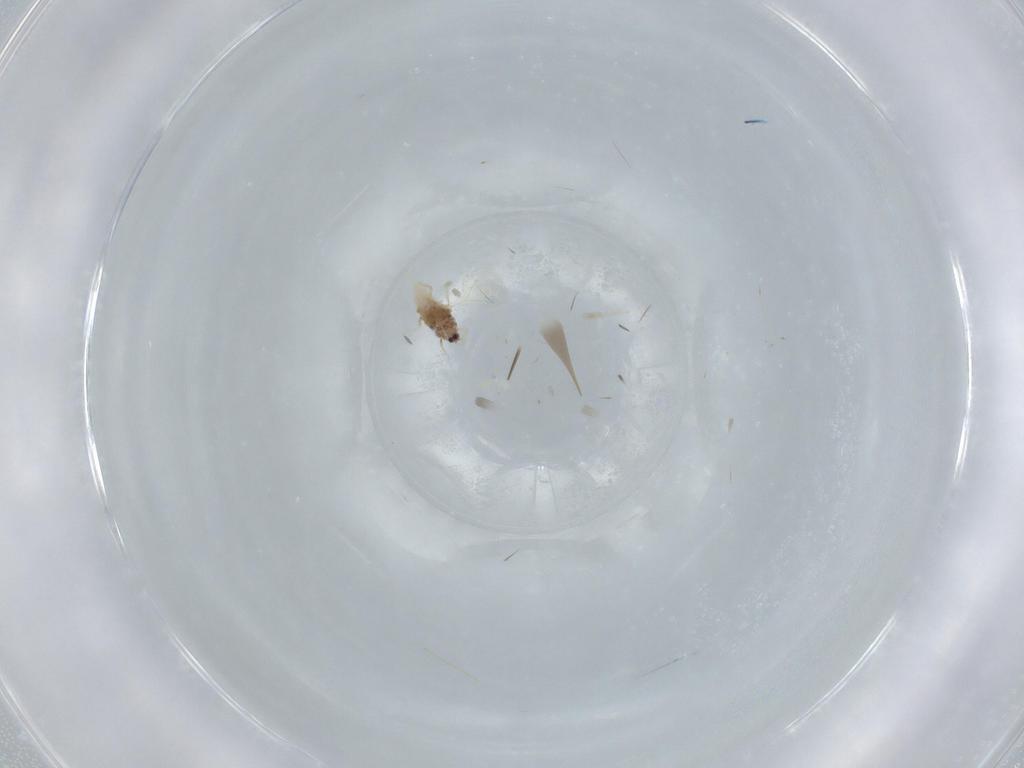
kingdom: Animalia
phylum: Arthropoda
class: Collembola
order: Entomobryomorpha
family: Entomobryidae
